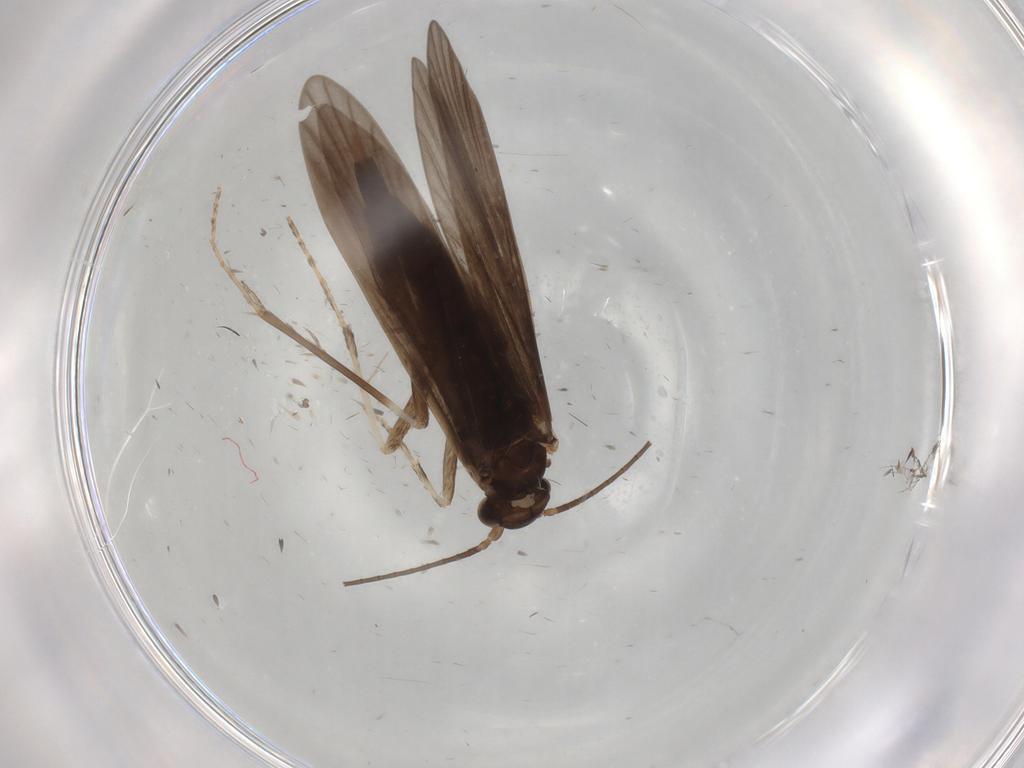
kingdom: Animalia
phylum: Arthropoda
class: Insecta
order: Trichoptera
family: Xiphocentronidae
